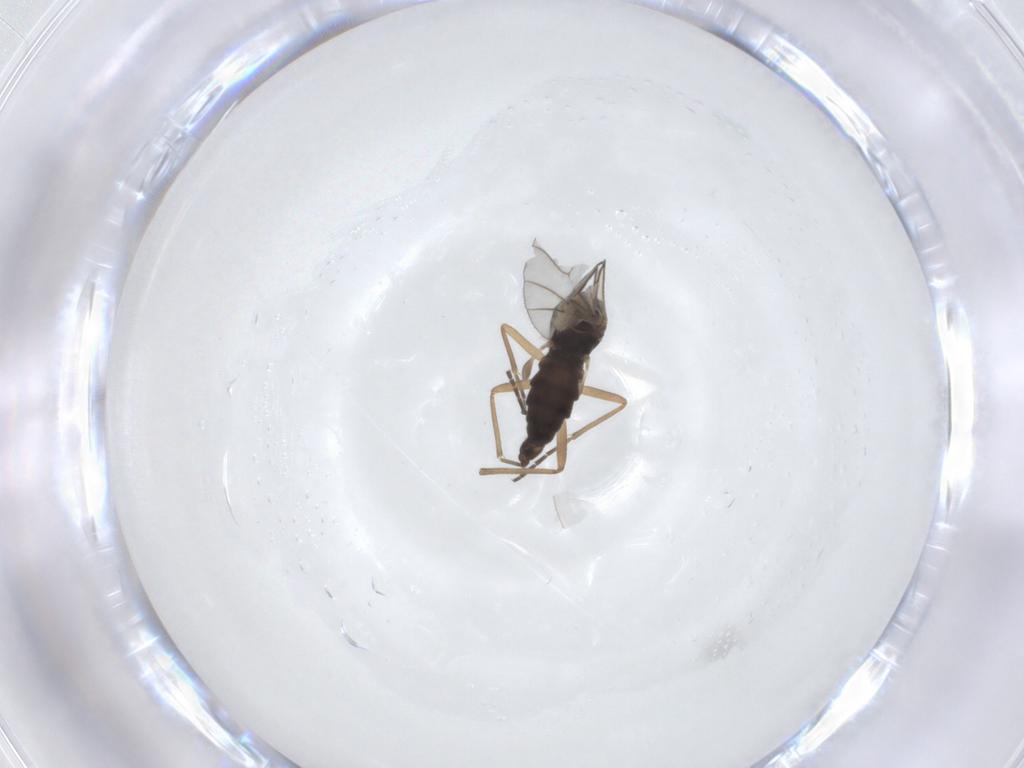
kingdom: Animalia
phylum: Arthropoda
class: Insecta
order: Diptera
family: Chironomidae
